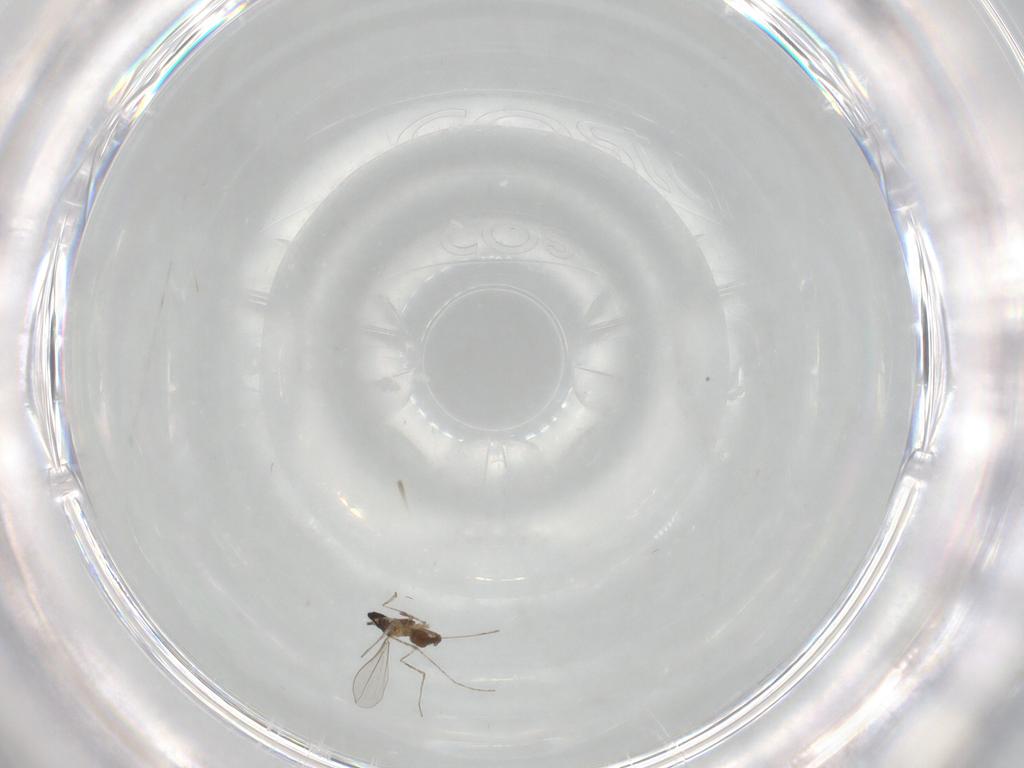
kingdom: Animalia
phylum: Arthropoda
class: Insecta
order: Diptera
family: Cecidomyiidae
